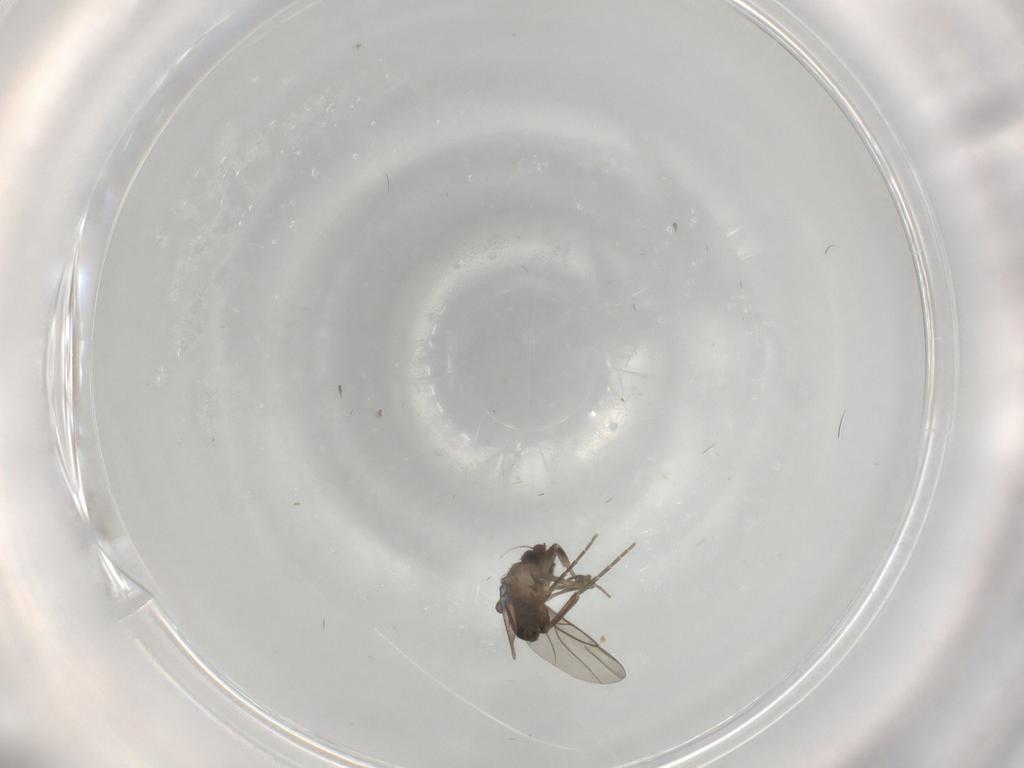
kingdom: Animalia
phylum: Arthropoda
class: Insecta
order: Diptera
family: Phoridae
